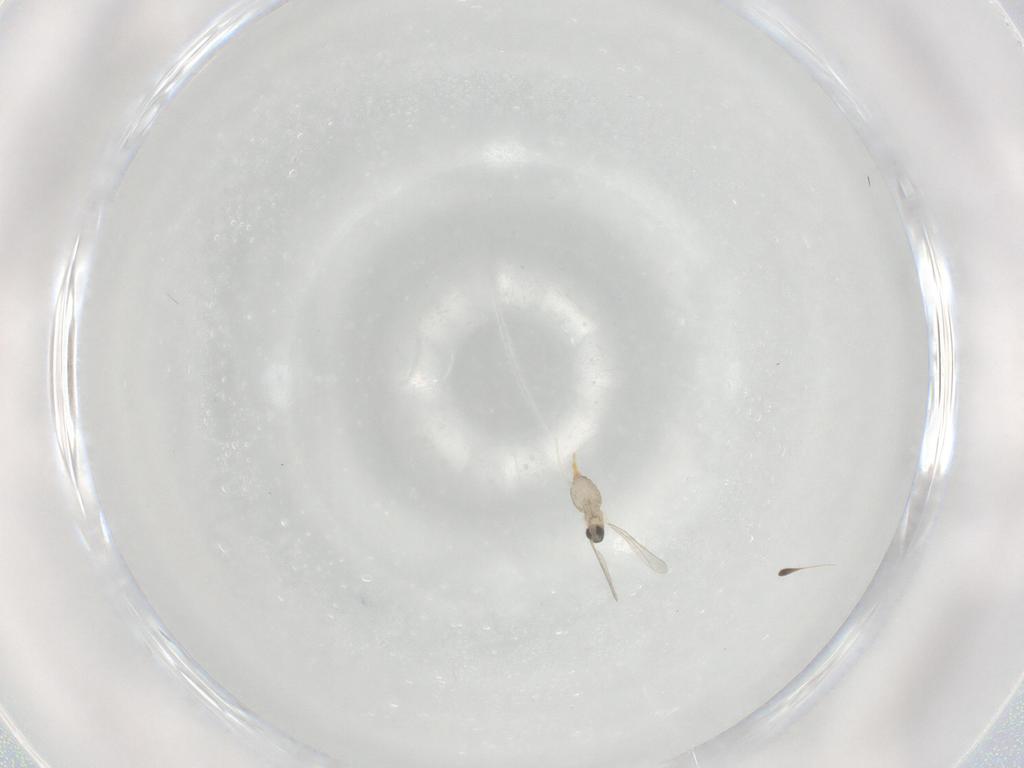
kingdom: Animalia
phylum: Arthropoda
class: Insecta
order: Diptera
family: Cecidomyiidae
